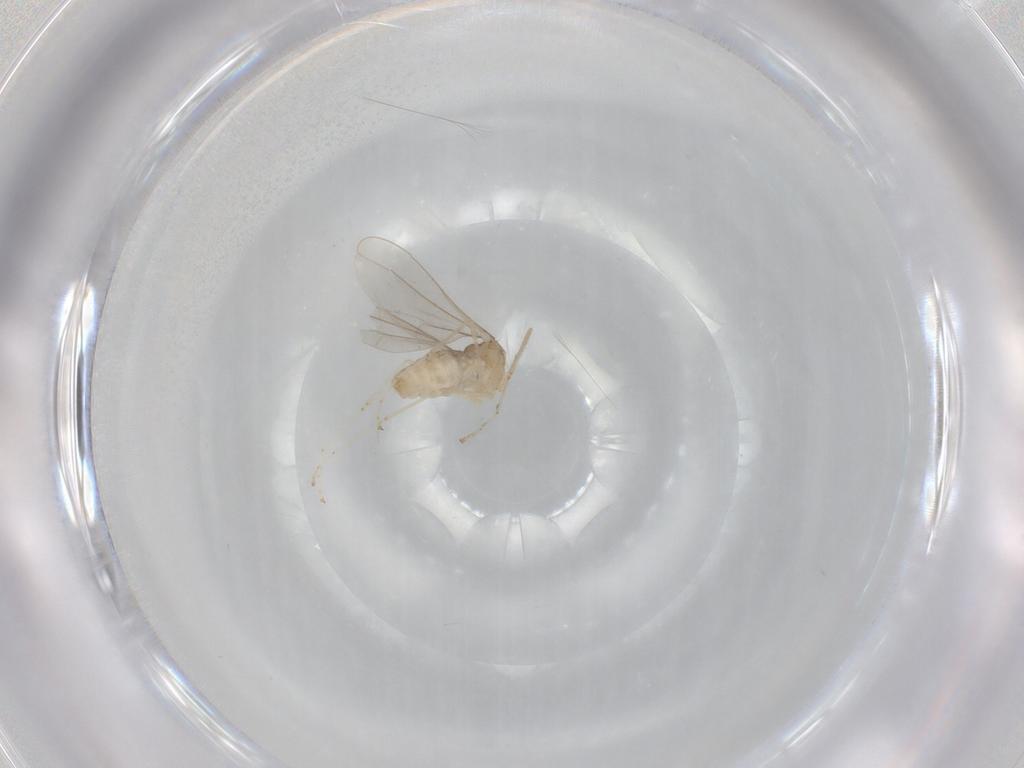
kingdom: Animalia
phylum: Arthropoda
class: Insecta
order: Diptera
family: Cecidomyiidae
